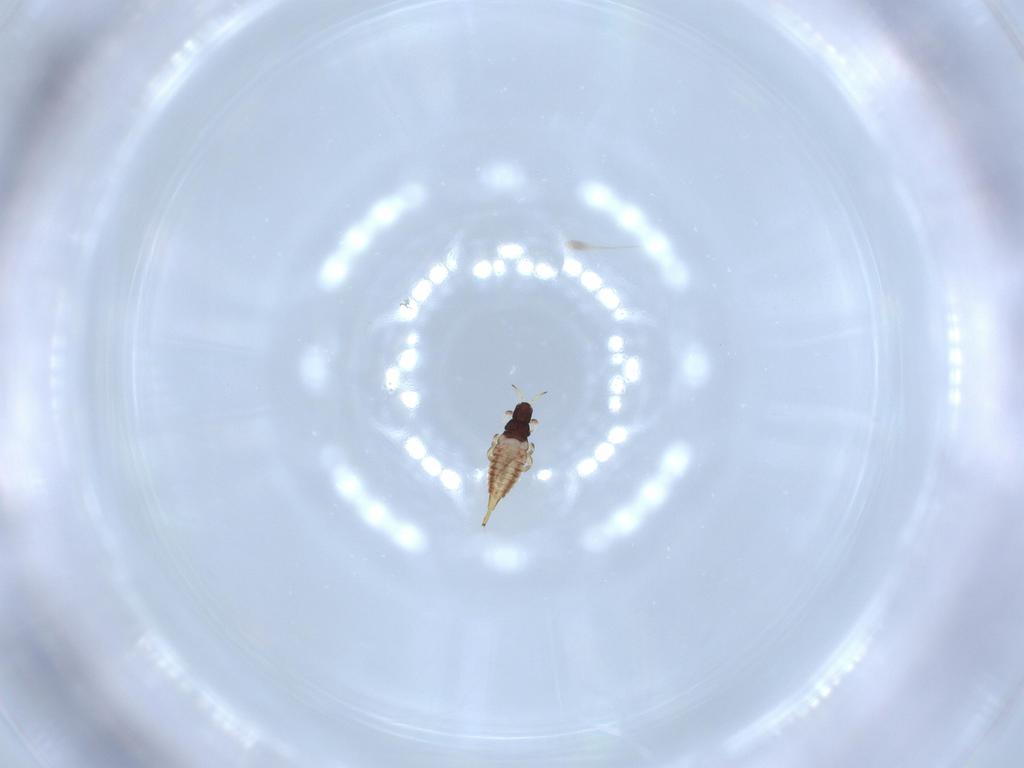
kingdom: Animalia
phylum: Arthropoda
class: Insecta
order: Thysanoptera
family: Phlaeothripidae
